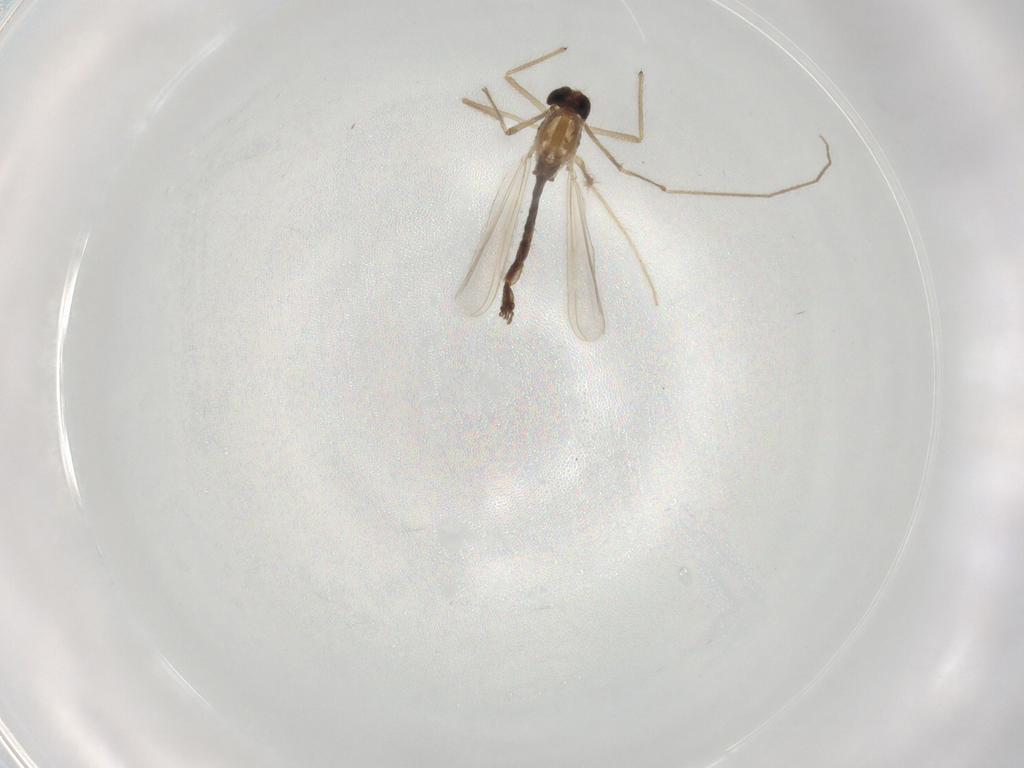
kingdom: Animalia
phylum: Arthropoda
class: Insecta
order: Diptera
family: Chironomidae
